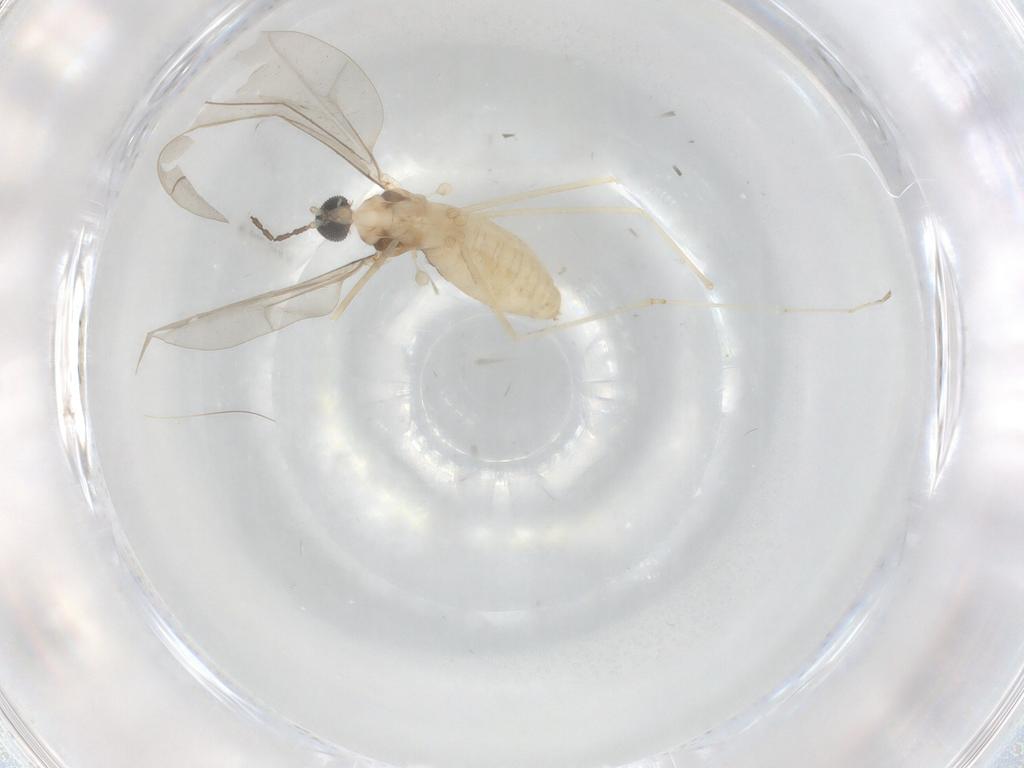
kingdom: Animalia
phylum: Arthropoda
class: Insecta
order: Diptera
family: Cecidomyiidae
